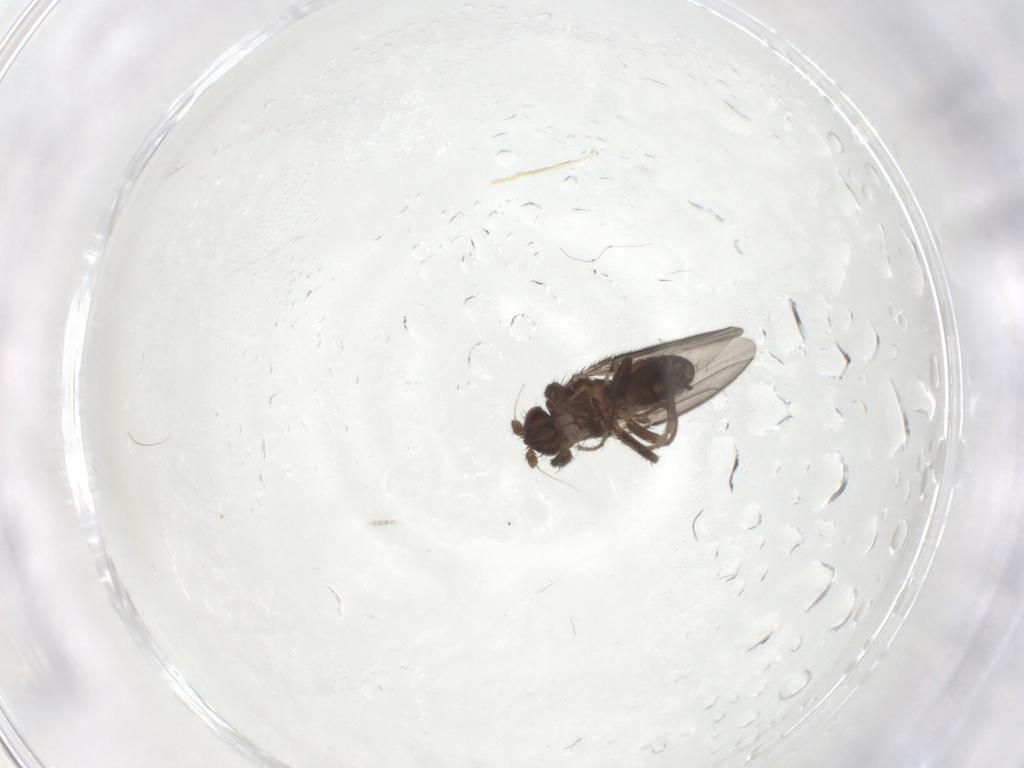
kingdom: Animalia
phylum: Arthropoda
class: Insecta
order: Diptera
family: Sphaeroceridae
